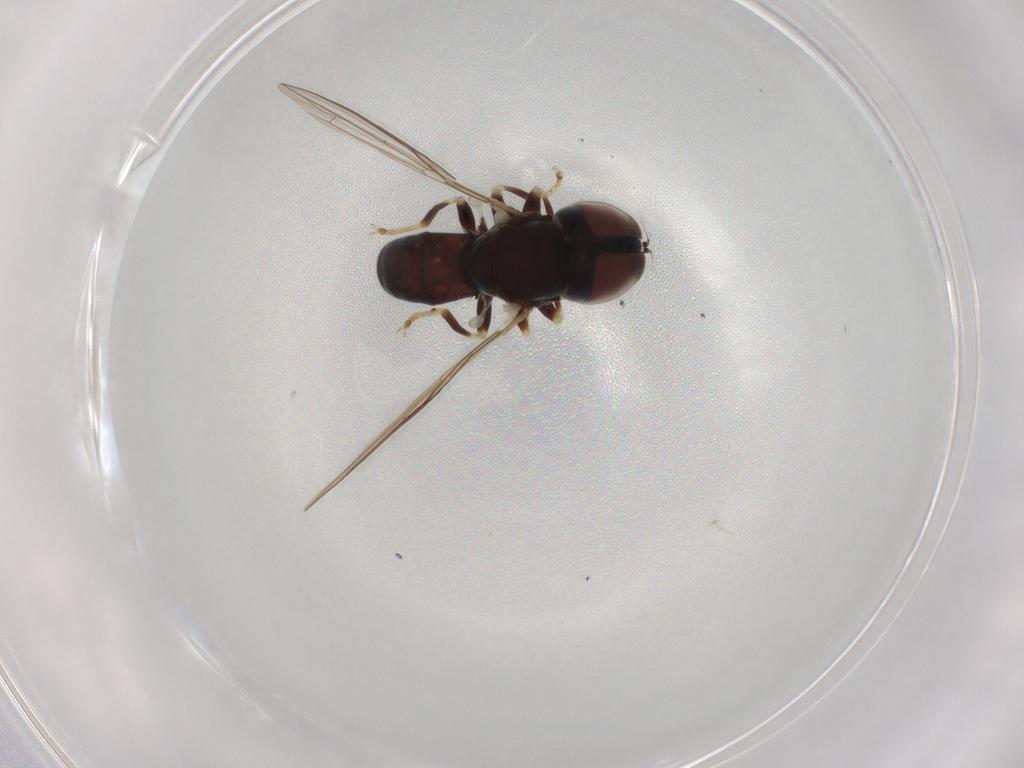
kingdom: Animalia
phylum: Arthropoda
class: Insecta
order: Diptera
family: Pipunculidae
